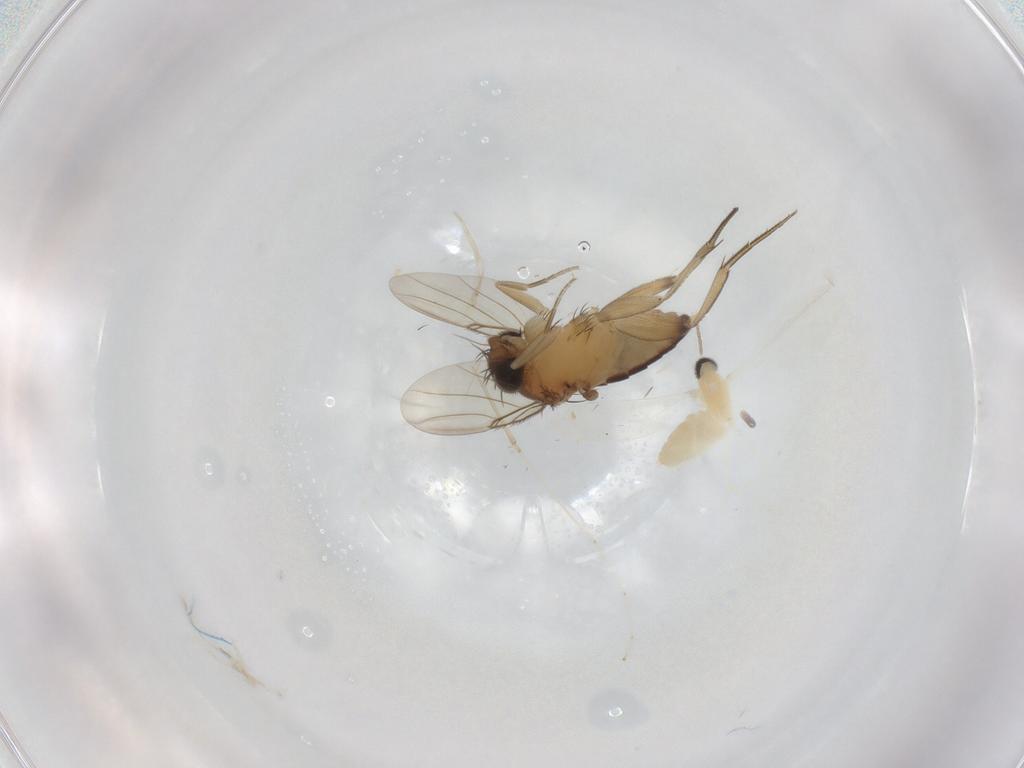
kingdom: Animalia
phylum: Arthropoda
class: Insecta
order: Diptera
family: Phoridae
